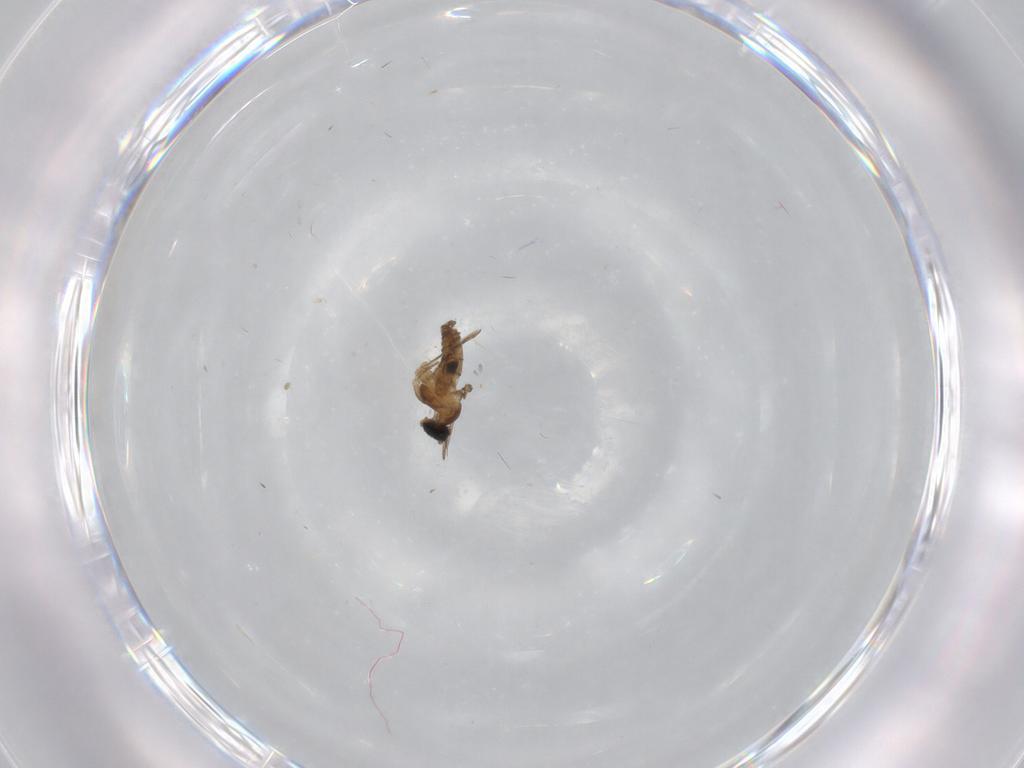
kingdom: Animalia
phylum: Arthropoda
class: Insecta
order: Diptera
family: Cecidomyiidae
